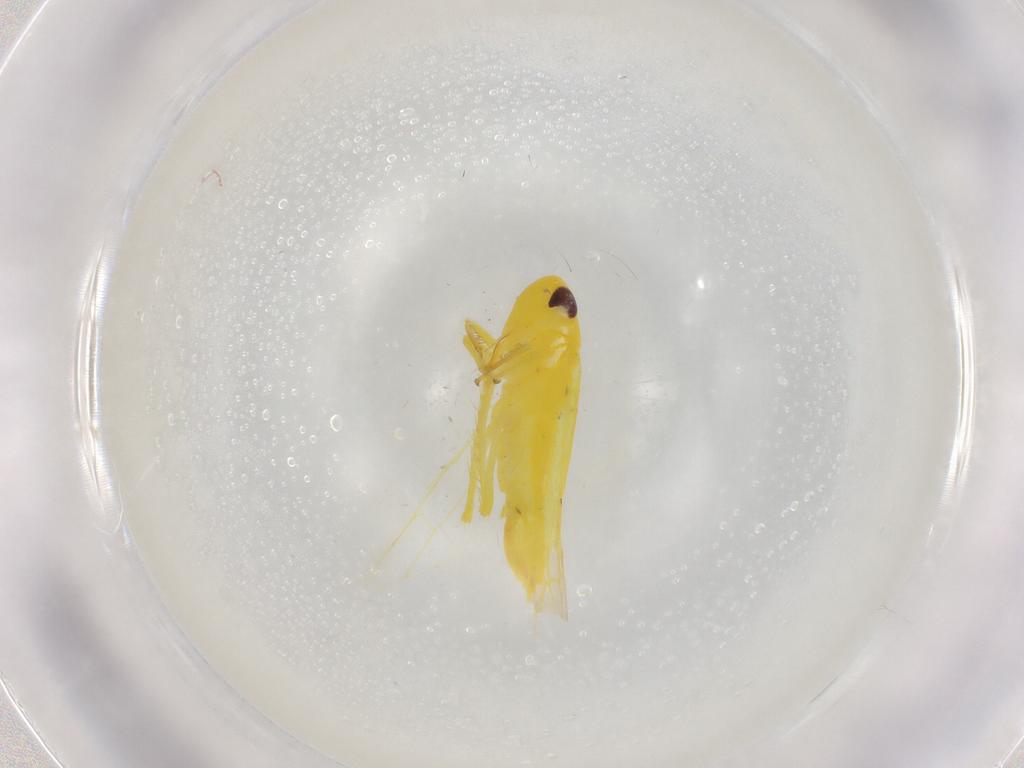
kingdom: Animalia
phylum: Arthropoda
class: Insecta
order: Hemiptera
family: Cicadellidae
